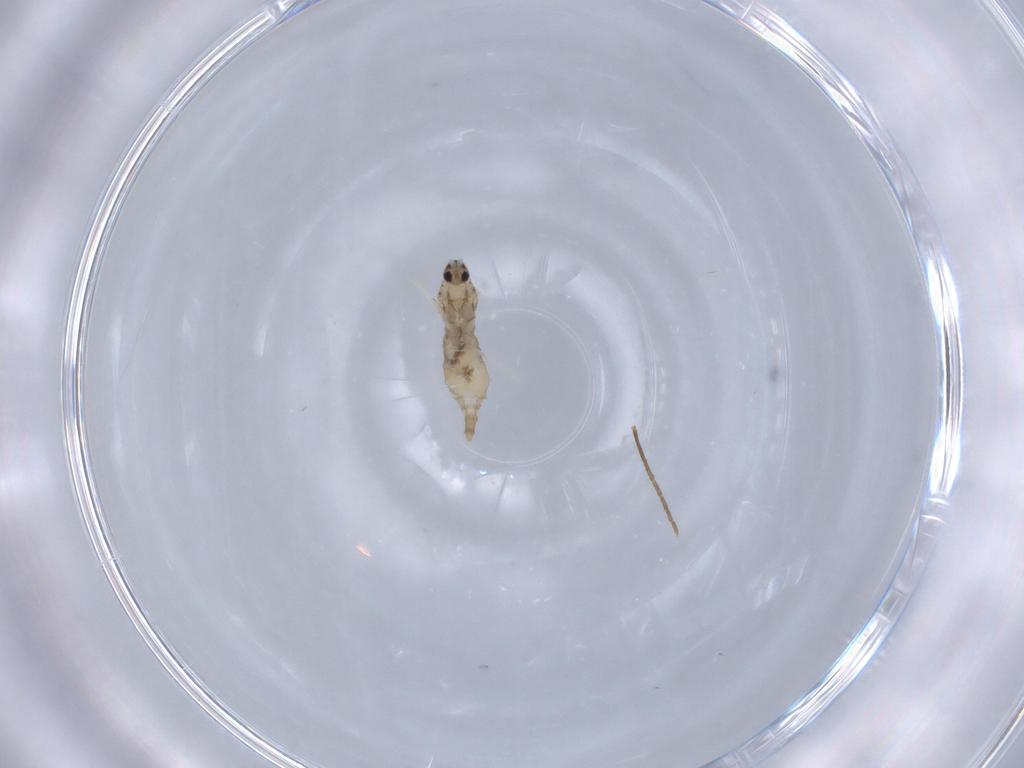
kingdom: Animalia
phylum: Arthropoda
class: Insecta
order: Diptera
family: Cecidomyiidae
